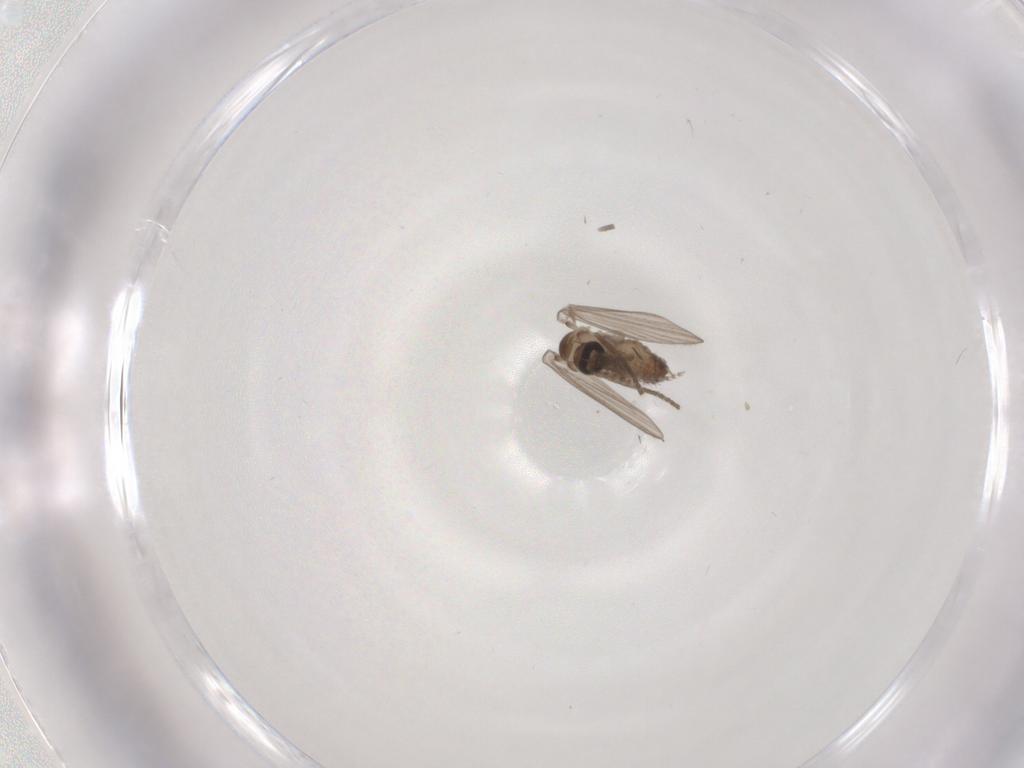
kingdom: Animalia
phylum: Arthropoda
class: Insecta
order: Diptera
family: Psychodidae
